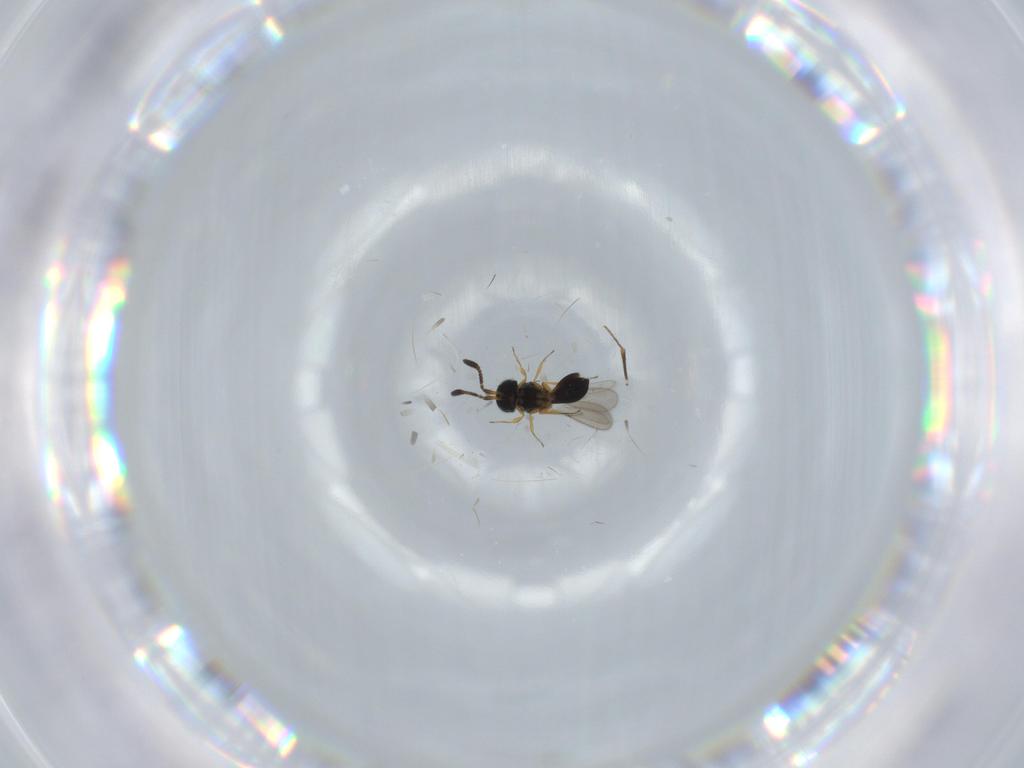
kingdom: Animalia
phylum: Arthropoda
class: Insecta
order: Hymenoptera
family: Scelionidae
